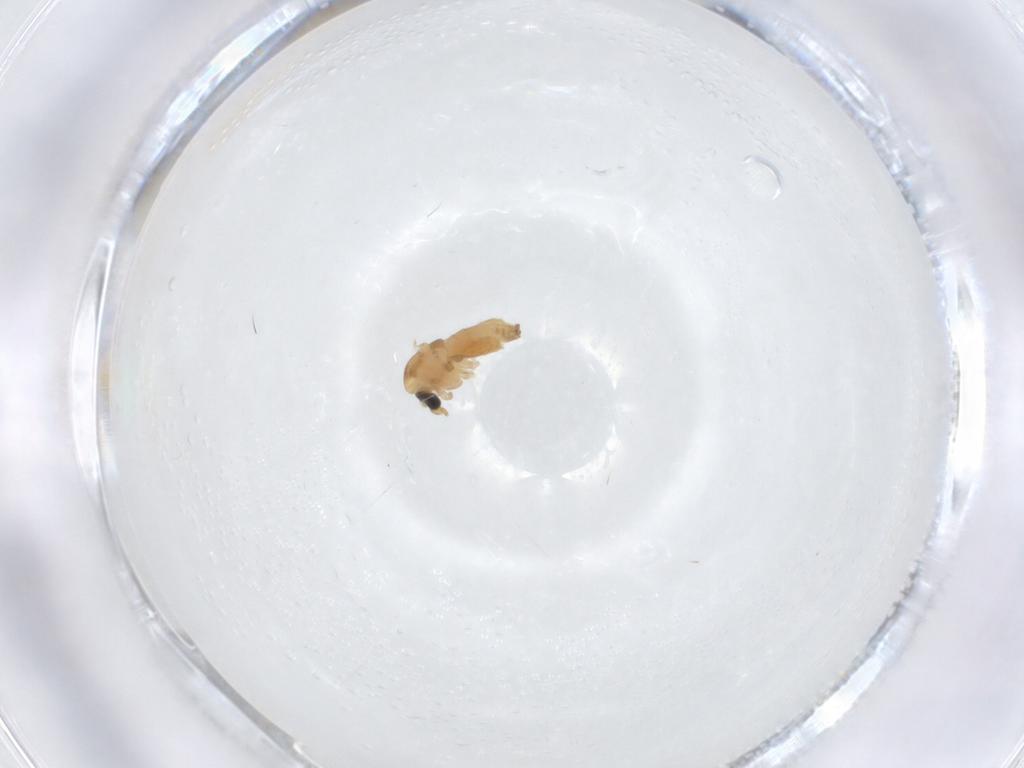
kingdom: Animalia
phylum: Arthropoda
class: Insecta
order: Diptera
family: Chironomidae
